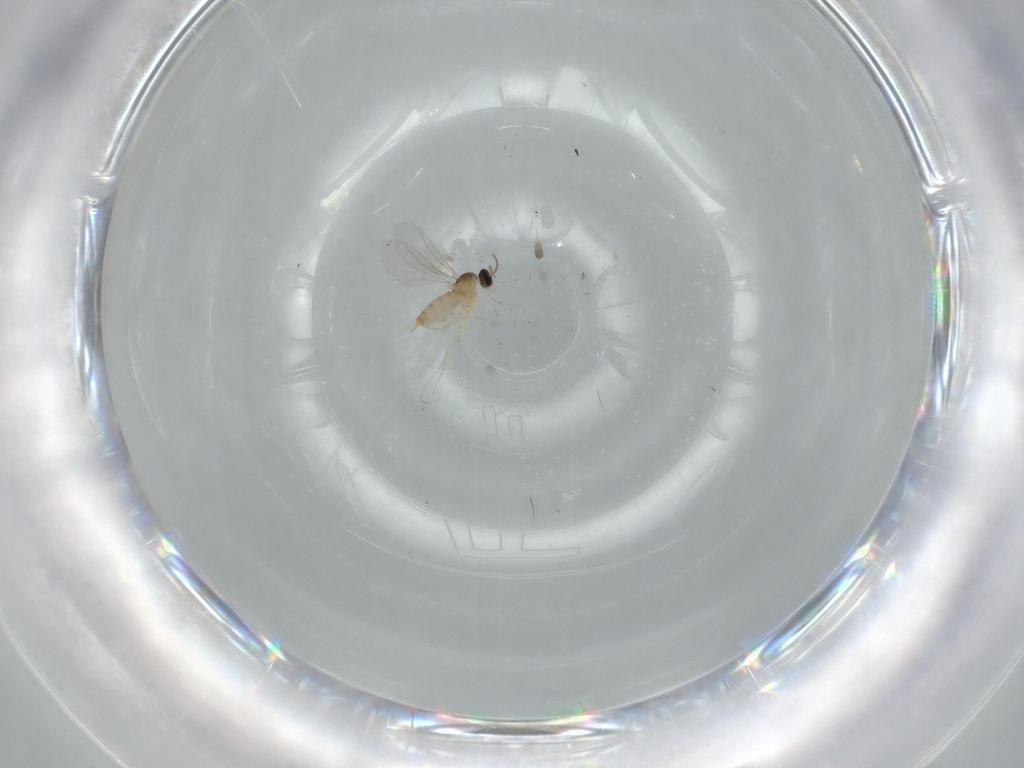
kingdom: Animalia
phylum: Arthropoda
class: Insecta
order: Diptera
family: Cecidomyiidae
